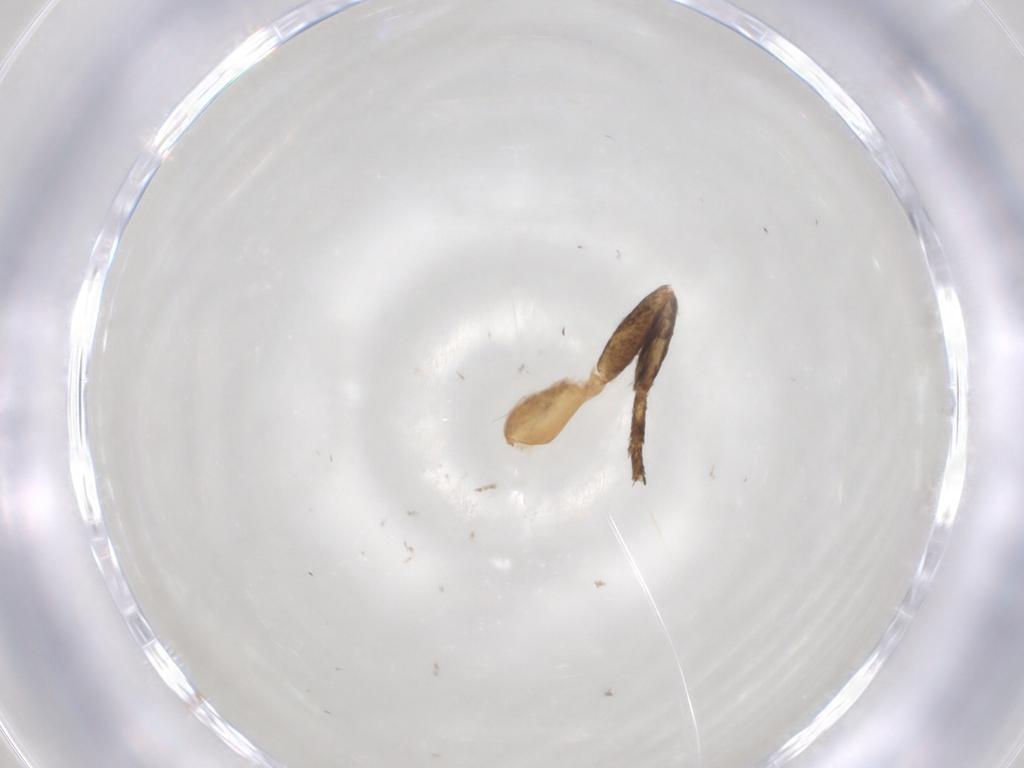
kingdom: Animalia
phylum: Arthropoda
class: Insecta
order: Lepidoptera
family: Oecophoridae
